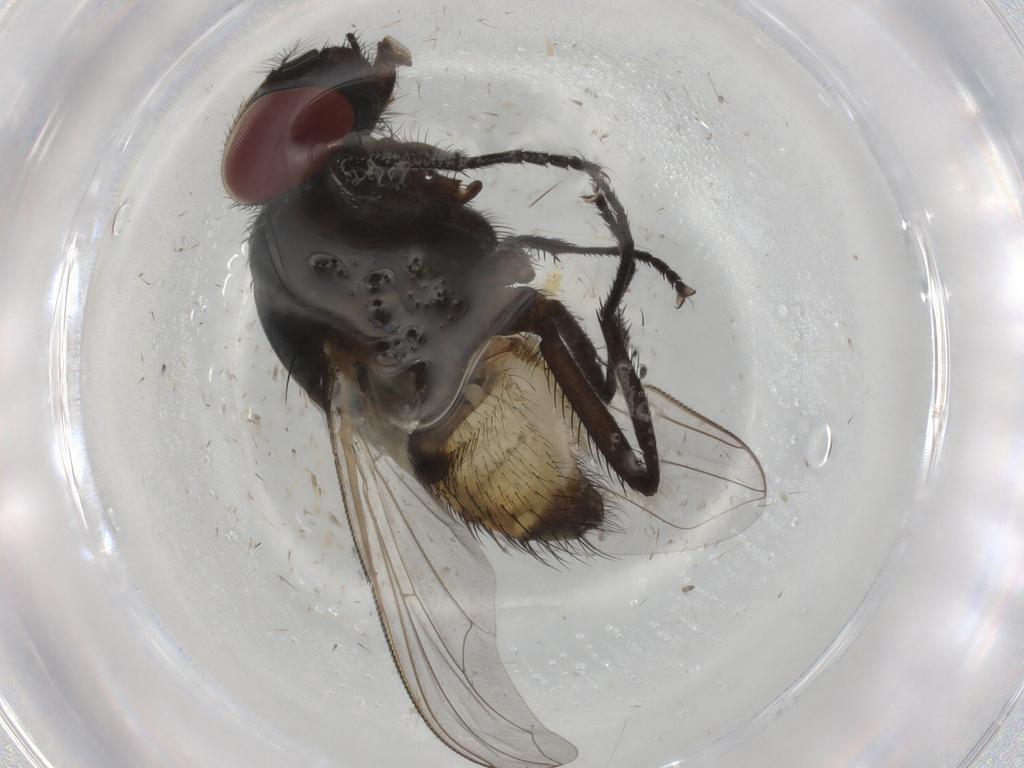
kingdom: Animalia
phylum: Arthropoda
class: Insecta
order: Diptera
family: Muscidae
